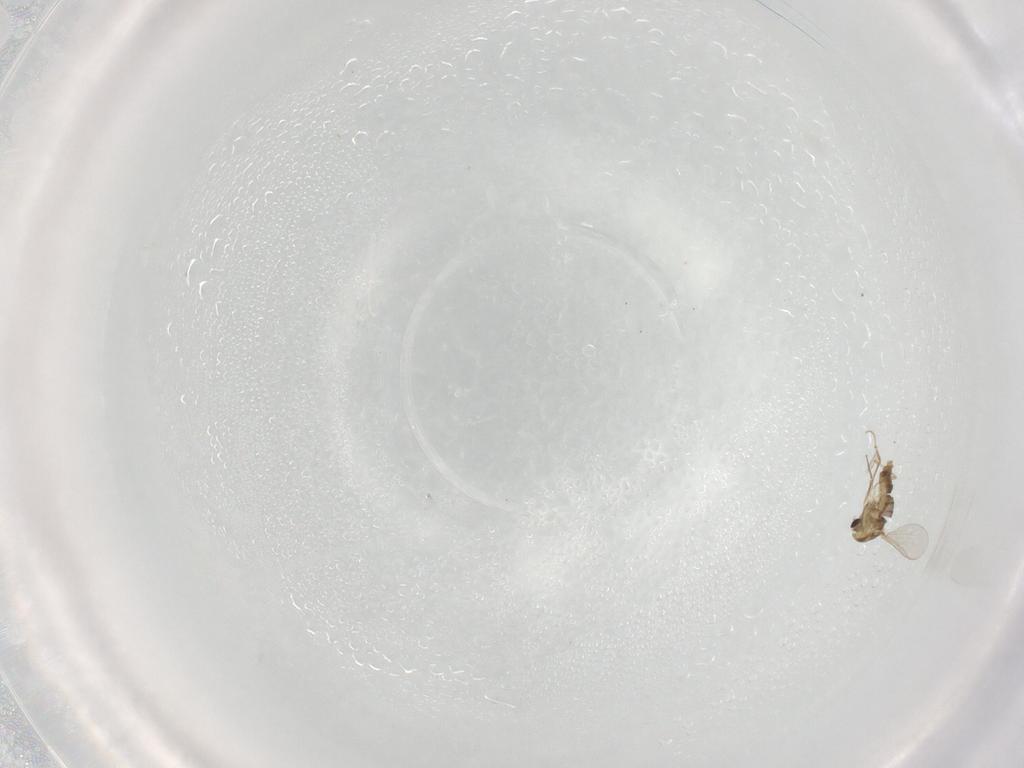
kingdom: Animalia
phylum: Arthropoda
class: Insecta
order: Diptera
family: Chironomidae
